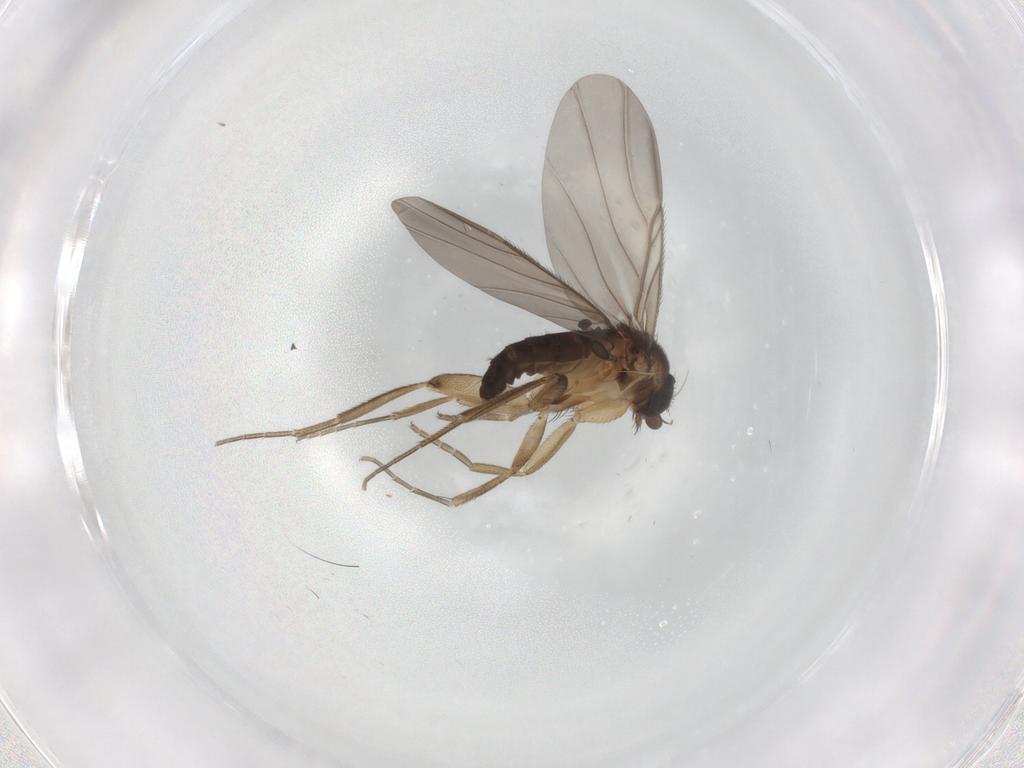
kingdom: Animalia
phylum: Arthropoda
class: Insecta
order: Diptera
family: Phoridae
